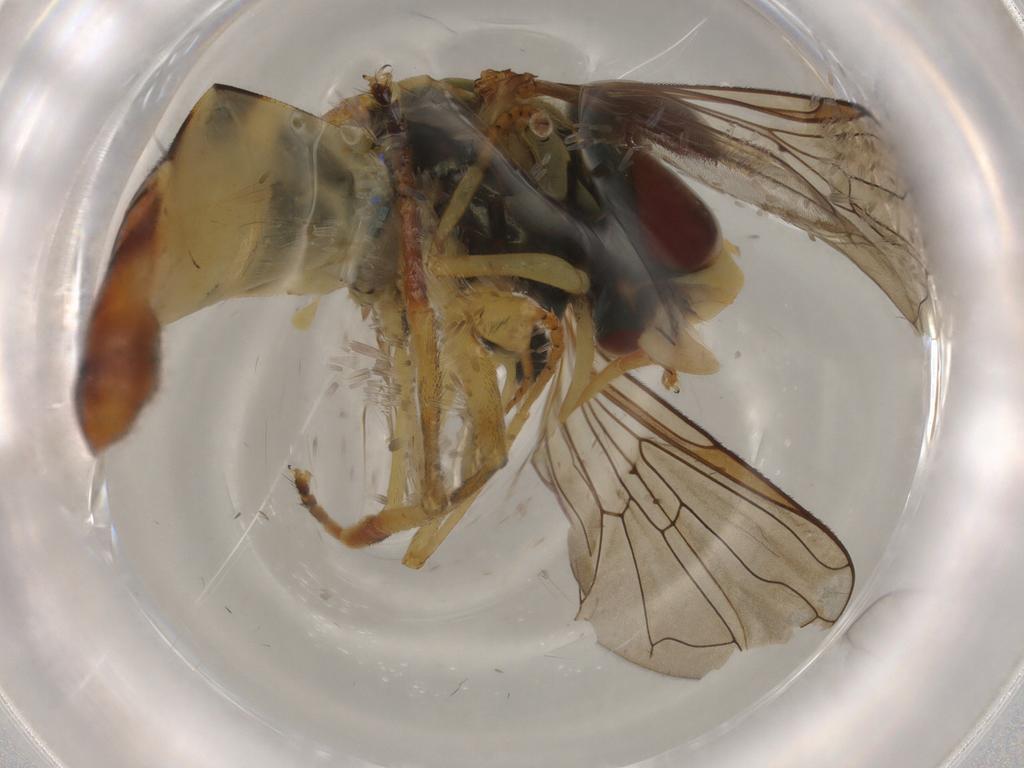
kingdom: Animalia
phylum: Arthropoda
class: Insecta
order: Diptera
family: Syrphidae
